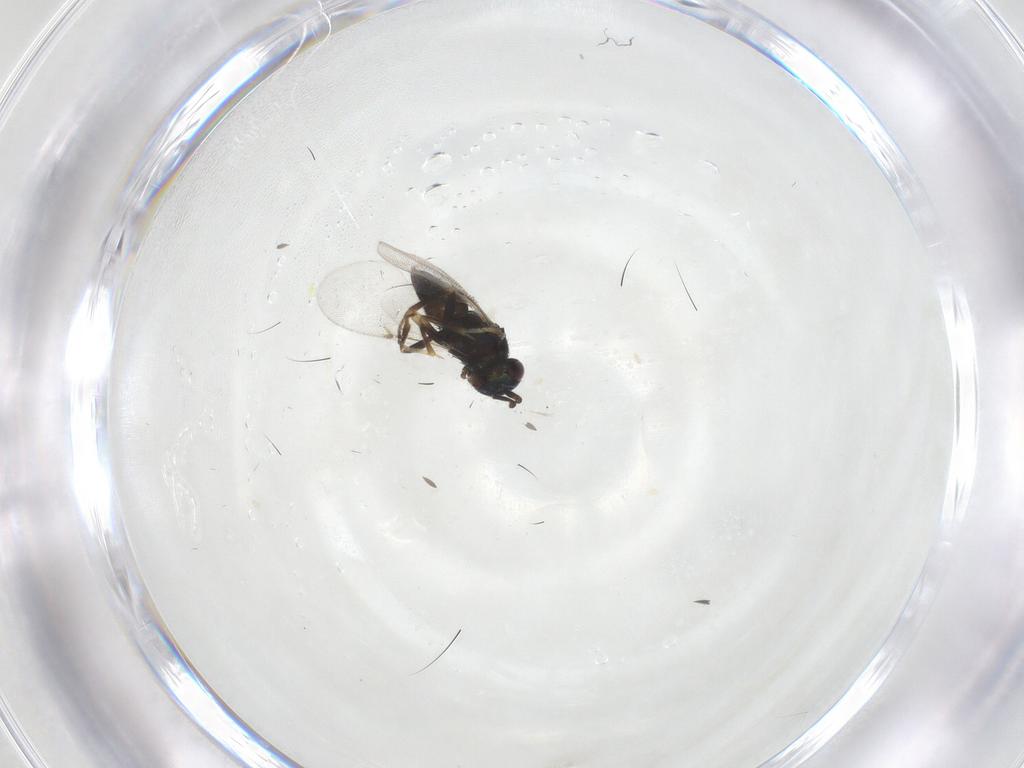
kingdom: Animalia
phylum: Arthropoda
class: Insecta
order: Hymenoptera
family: Encyrtidae
